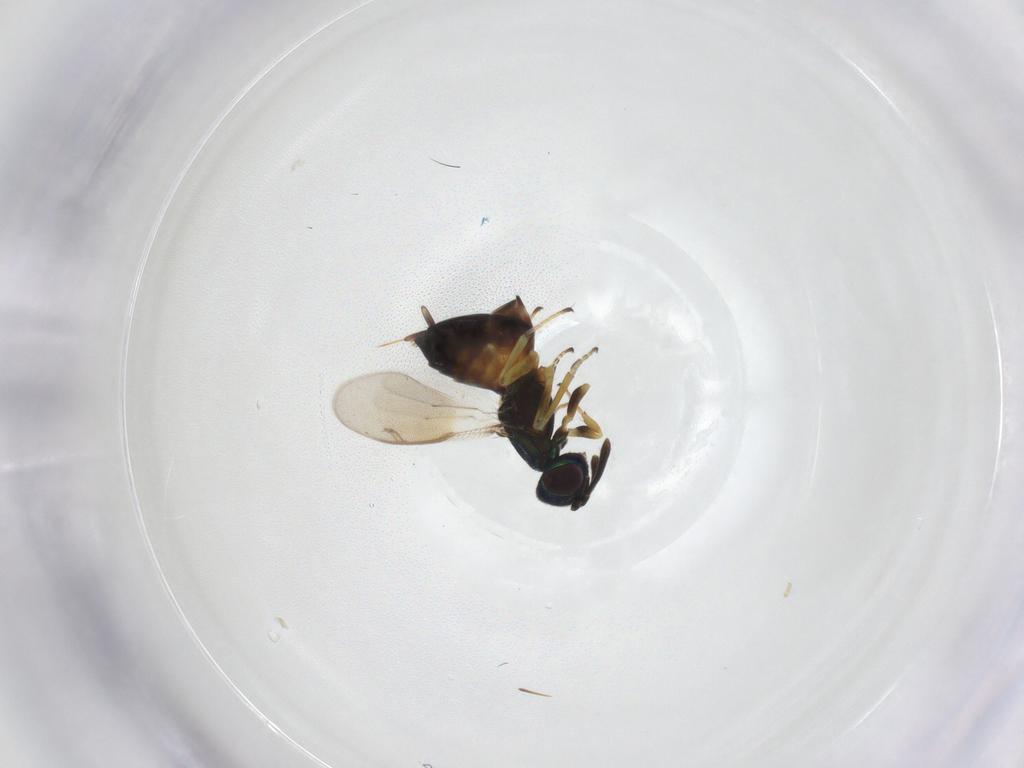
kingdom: Animalia
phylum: Arthropoda
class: Insecta
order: Hymenoptera
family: Eupelmidae
